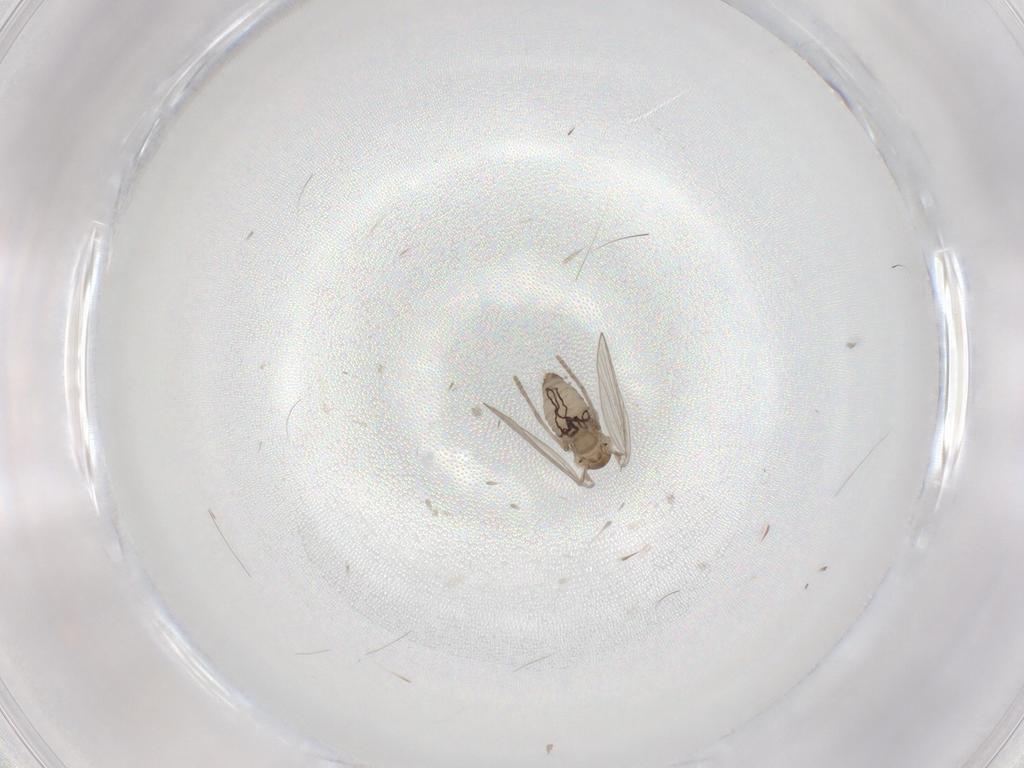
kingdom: Animalia
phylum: Arthropoda
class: Insecta
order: Diptera
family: Psychodidae
